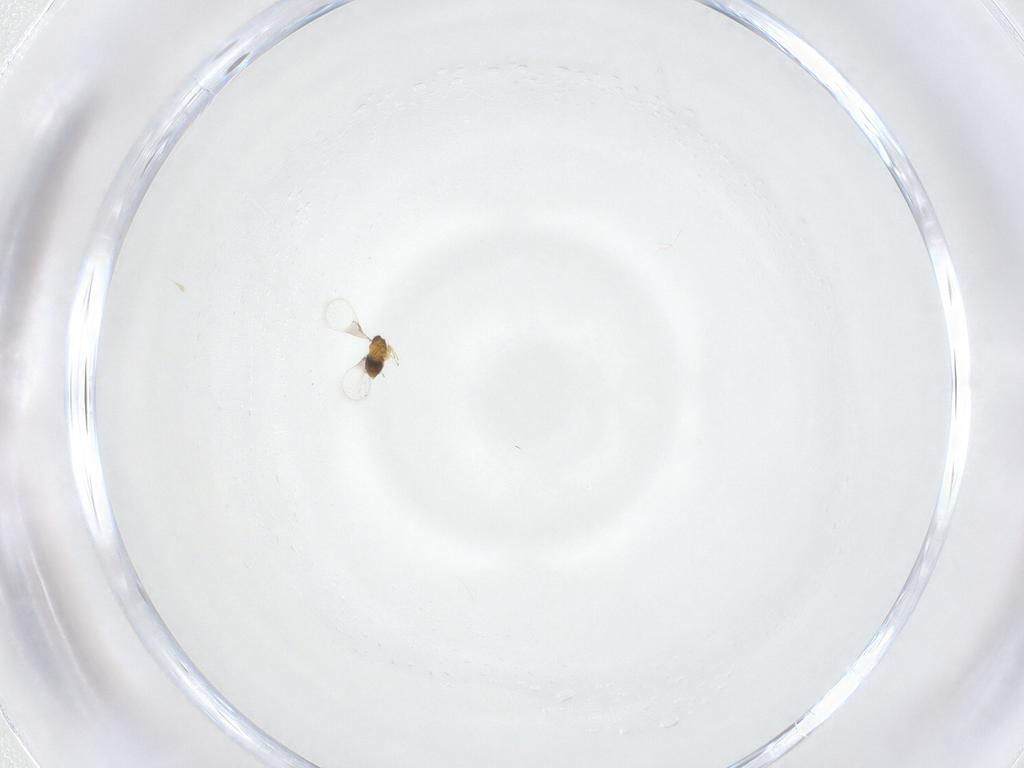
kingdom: Animalia
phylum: Arthropoda
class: Insecta
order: Hymenoptera
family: Trichogrammatidae
